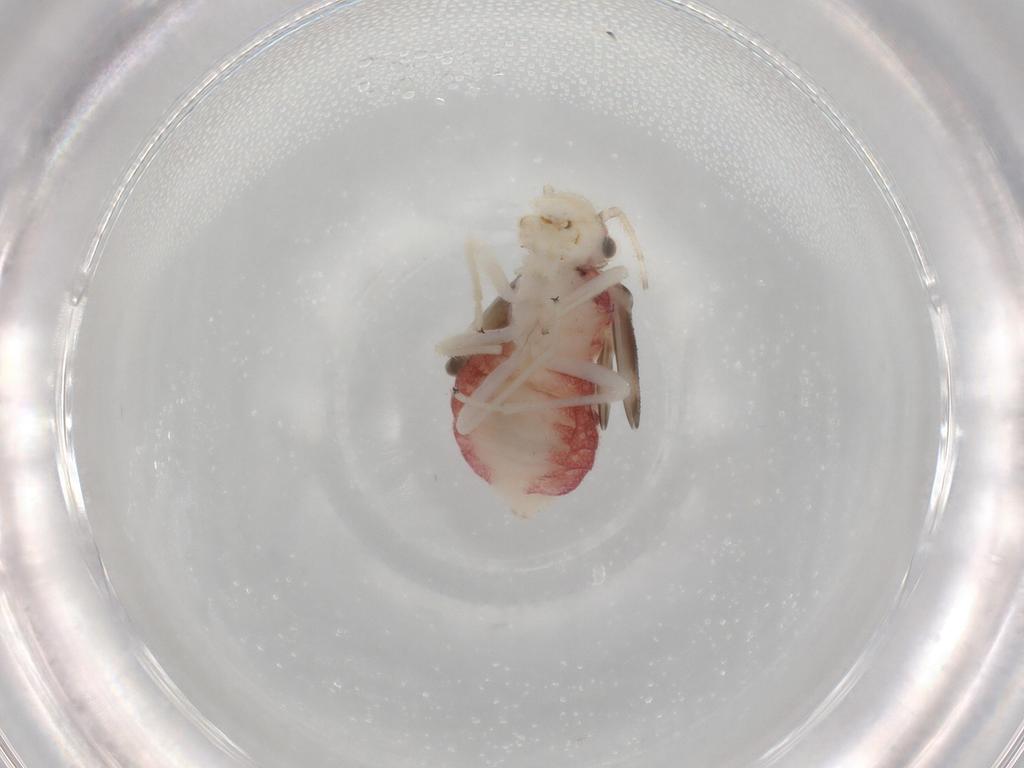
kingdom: Animalia
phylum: Arthropoda
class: Insecta
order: Psocodea
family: Amphipsocidae
